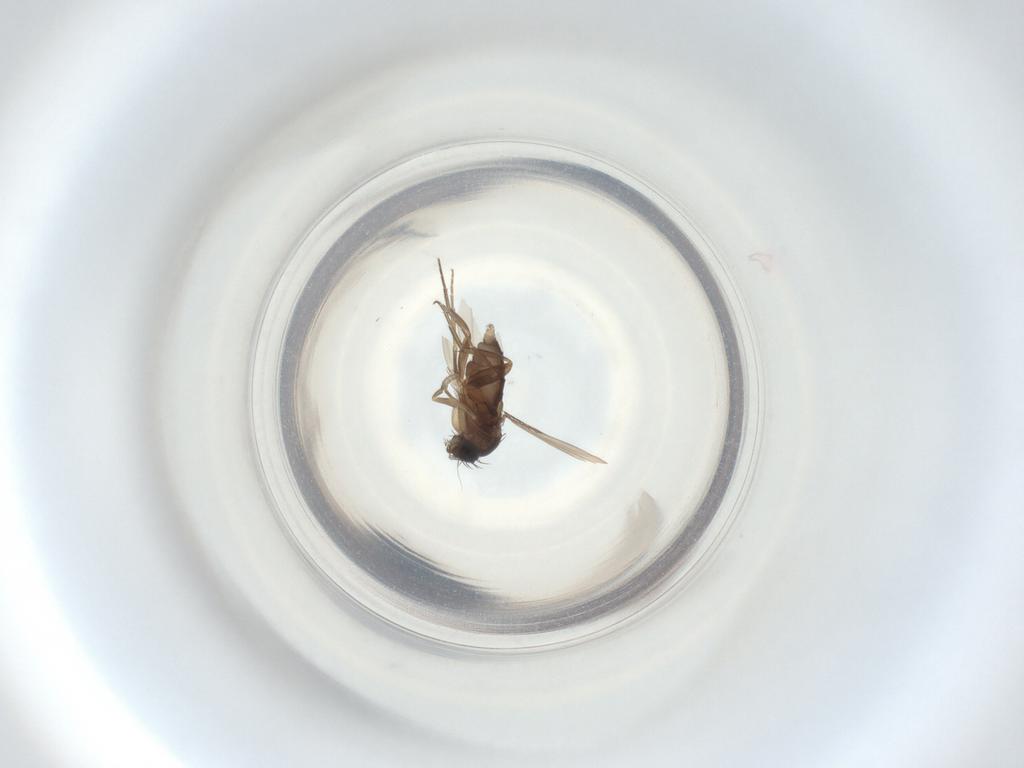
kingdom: Animalia
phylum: Arthropoda
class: Insecta
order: Diptera
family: Phoridae
